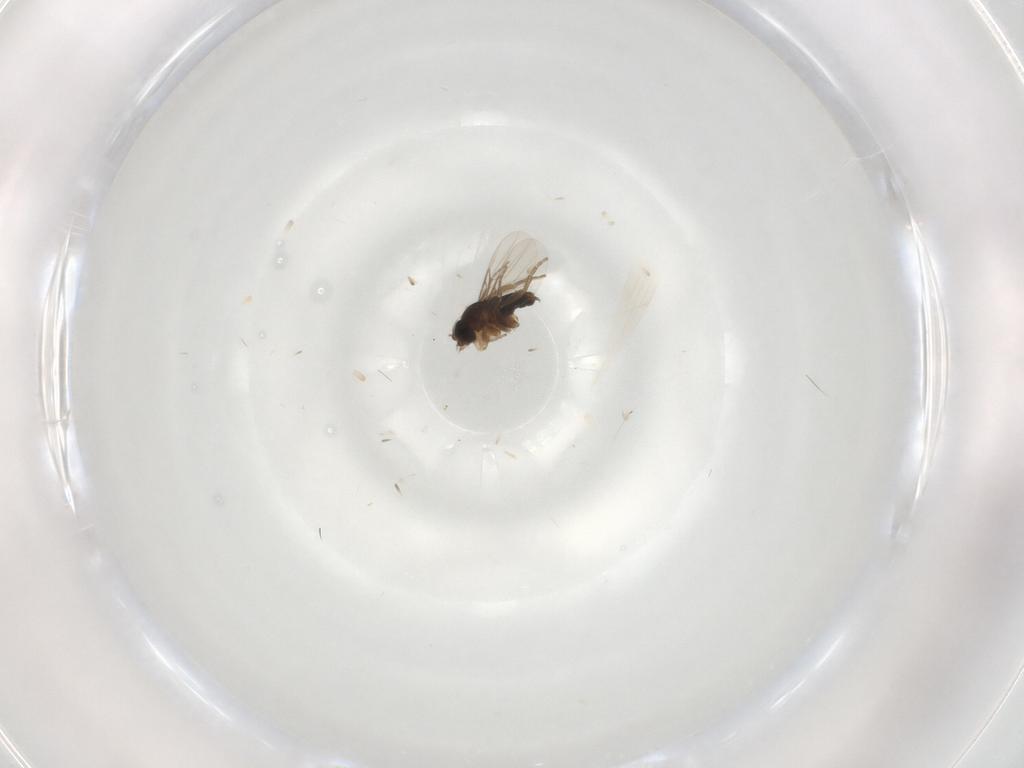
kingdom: Animalia
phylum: Arthropoda
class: Insecta
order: Diptera
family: Phoridae
